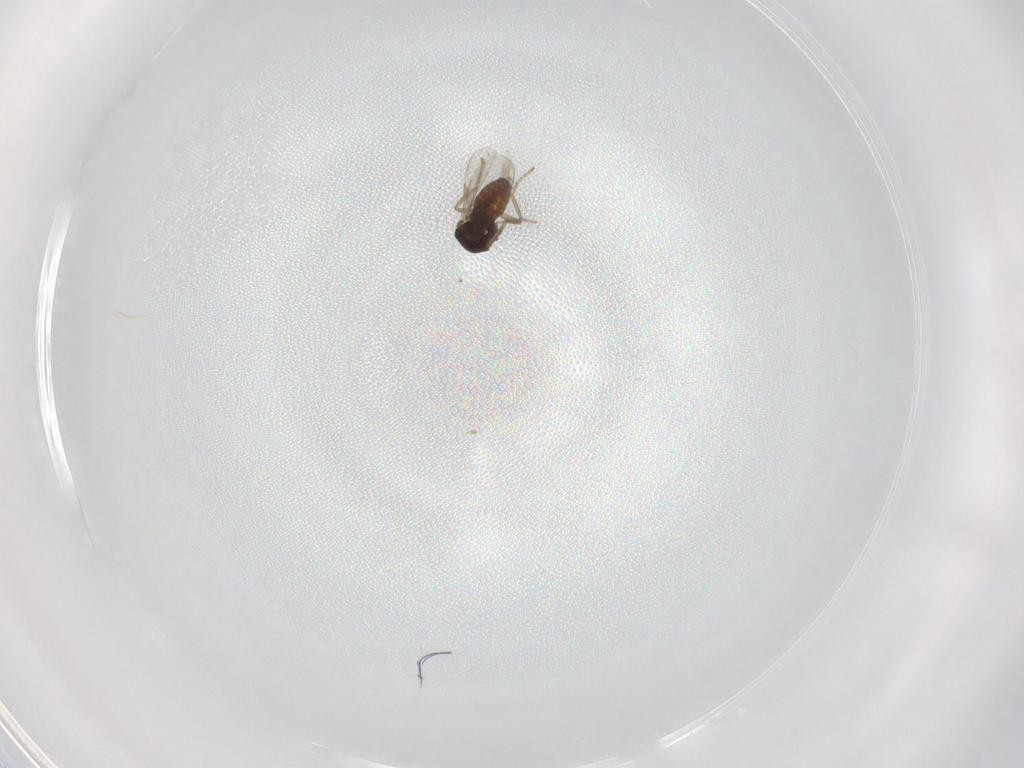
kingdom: Animalia
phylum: Arthropoda
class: Insecta
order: Diptera
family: Ceratopogonidae
